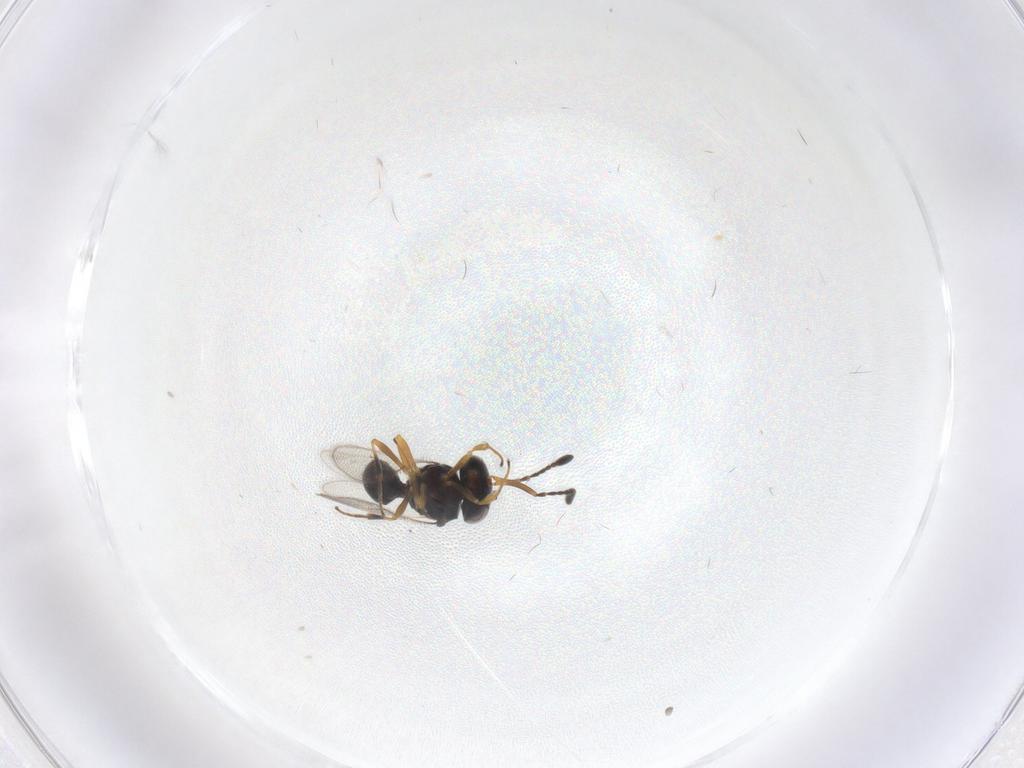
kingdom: Animalia
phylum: Arthropoda
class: Insecta
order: Hymenoptera
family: Scelionidae
